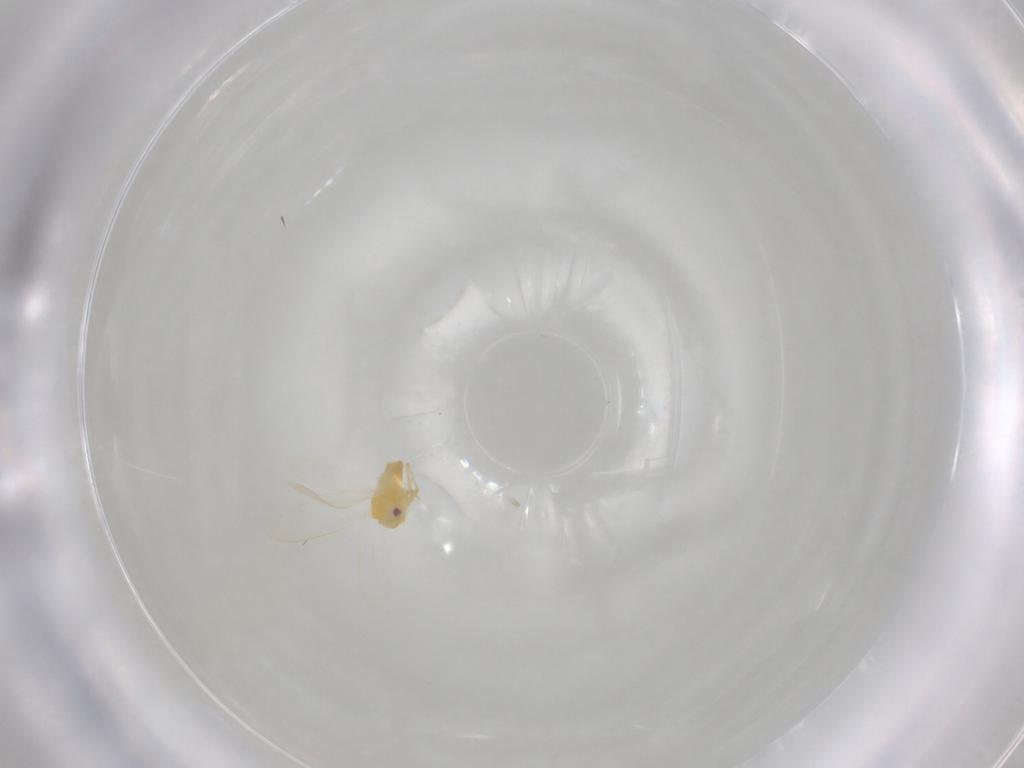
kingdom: Animalia
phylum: Arthropoda
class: Insecta
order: Hemiptera
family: Aleyrodidae
